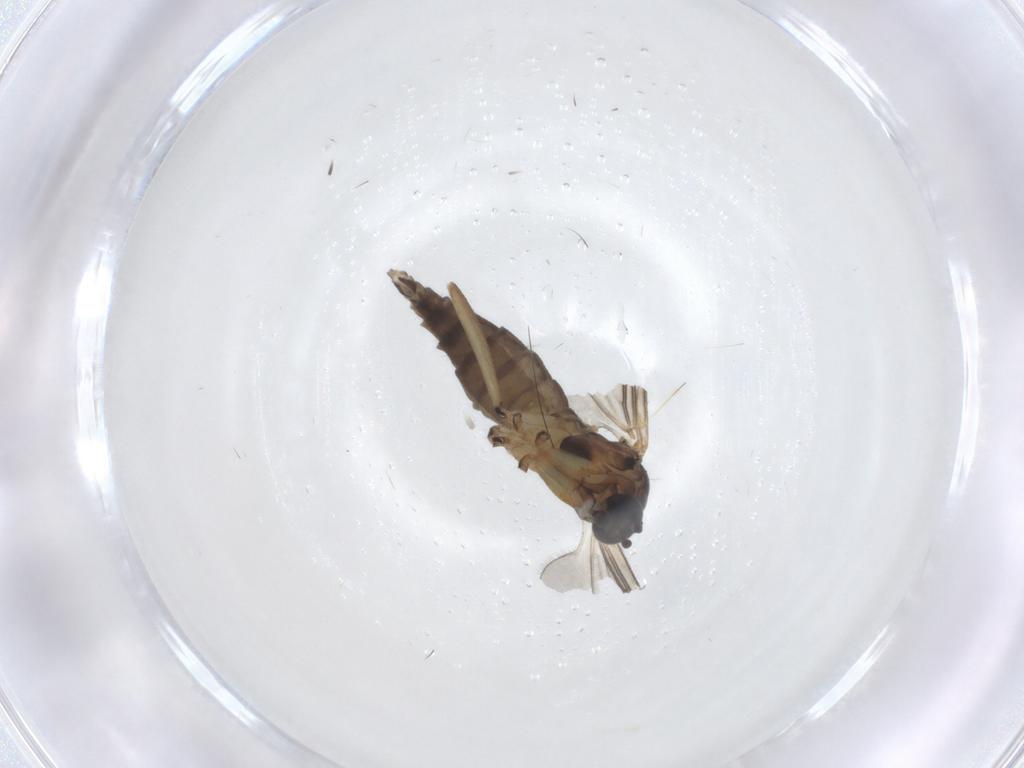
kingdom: Animalia
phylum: Arthropoda
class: Insecta
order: Diptera
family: Sciaridae
